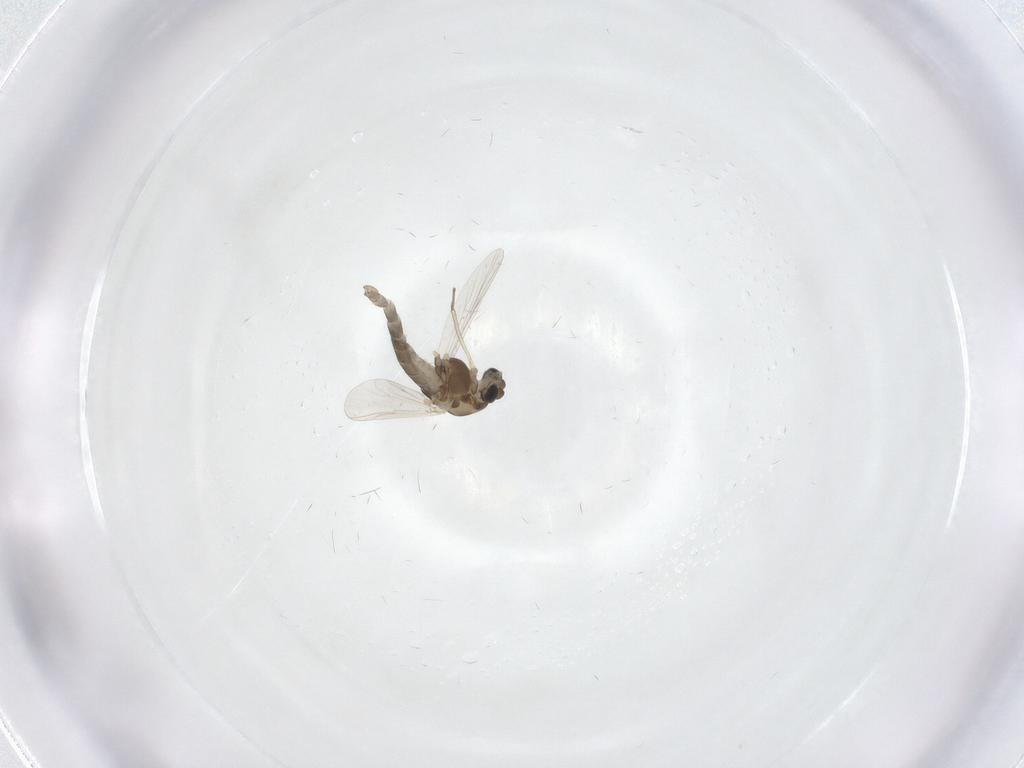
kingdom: Animalia
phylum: Arthropoda
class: Insecta
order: Diptera
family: Chironomidae
